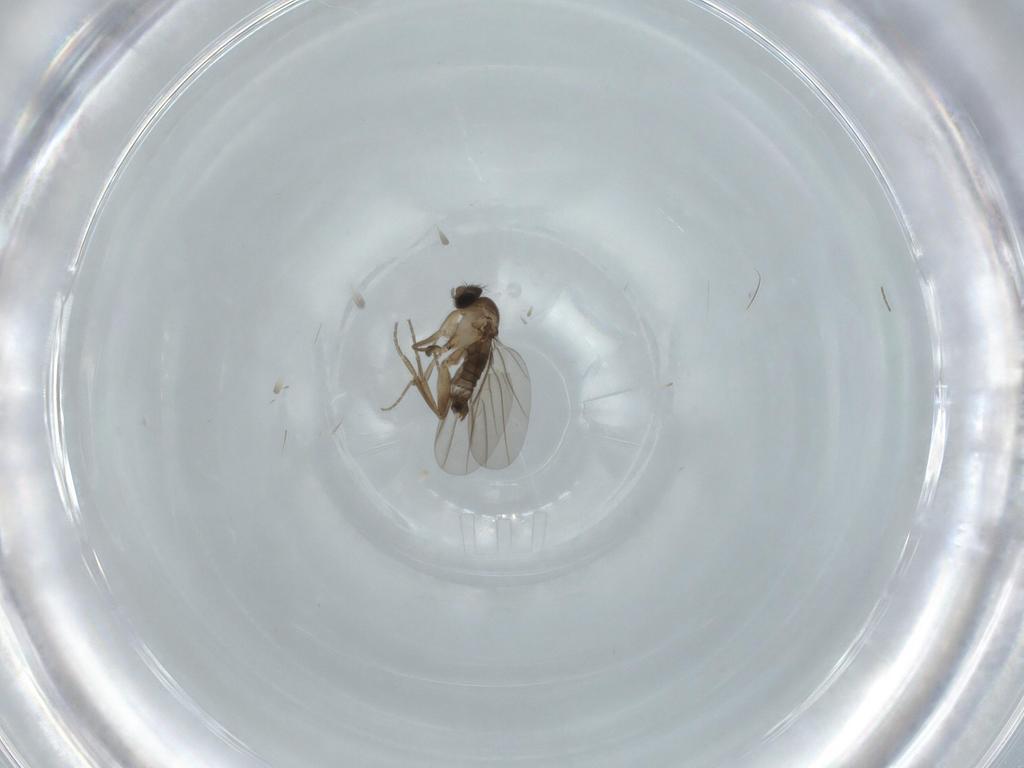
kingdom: Animalia
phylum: Arthropoda
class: Insecta
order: Diptera
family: Phoridae
